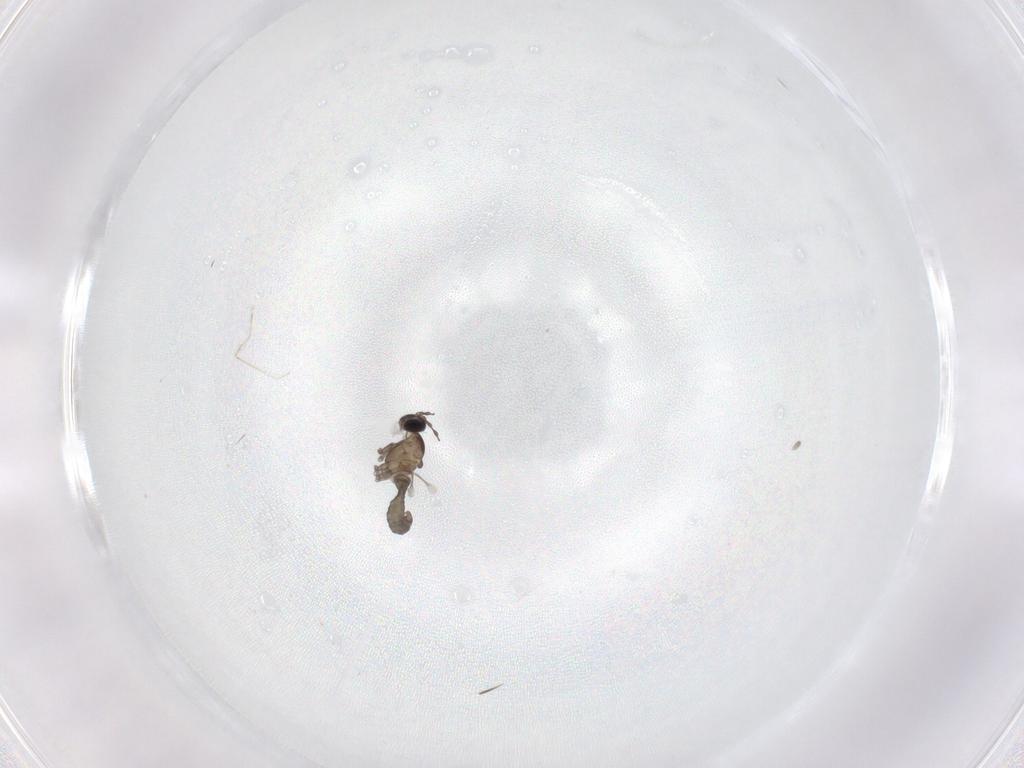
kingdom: Animalia
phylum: Arthropoda
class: Insecta
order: Diptera
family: Cecidomyiidae
